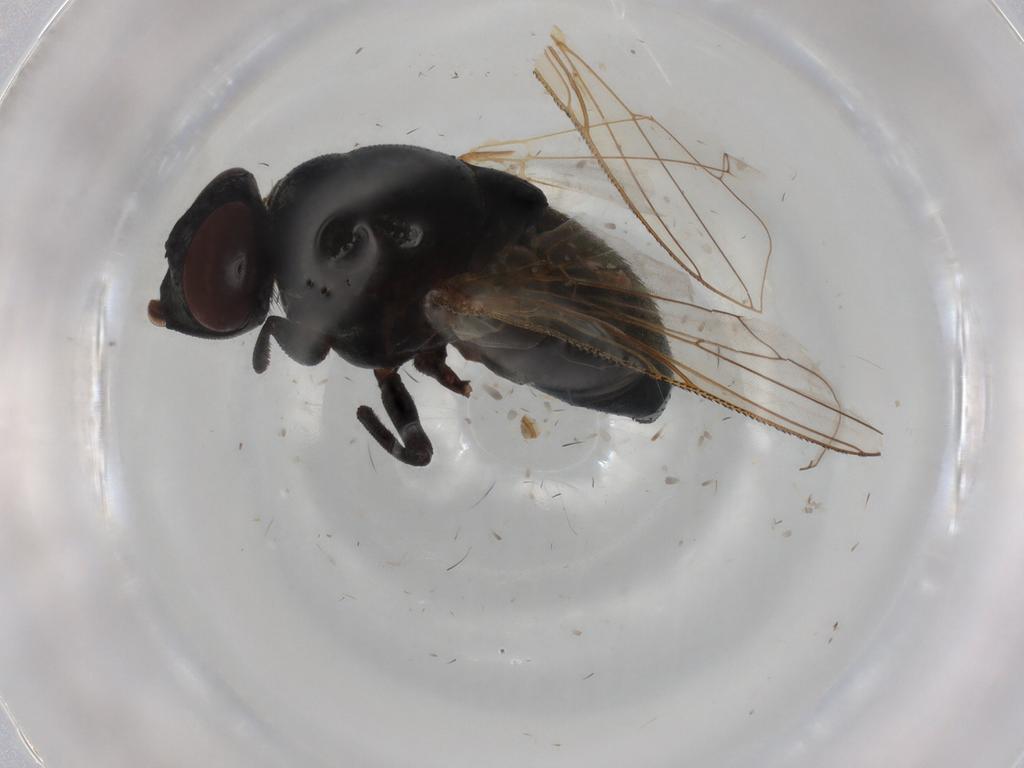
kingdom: Animalia
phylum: Arthropoda
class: Insecta
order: Diptera
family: Muscidae
